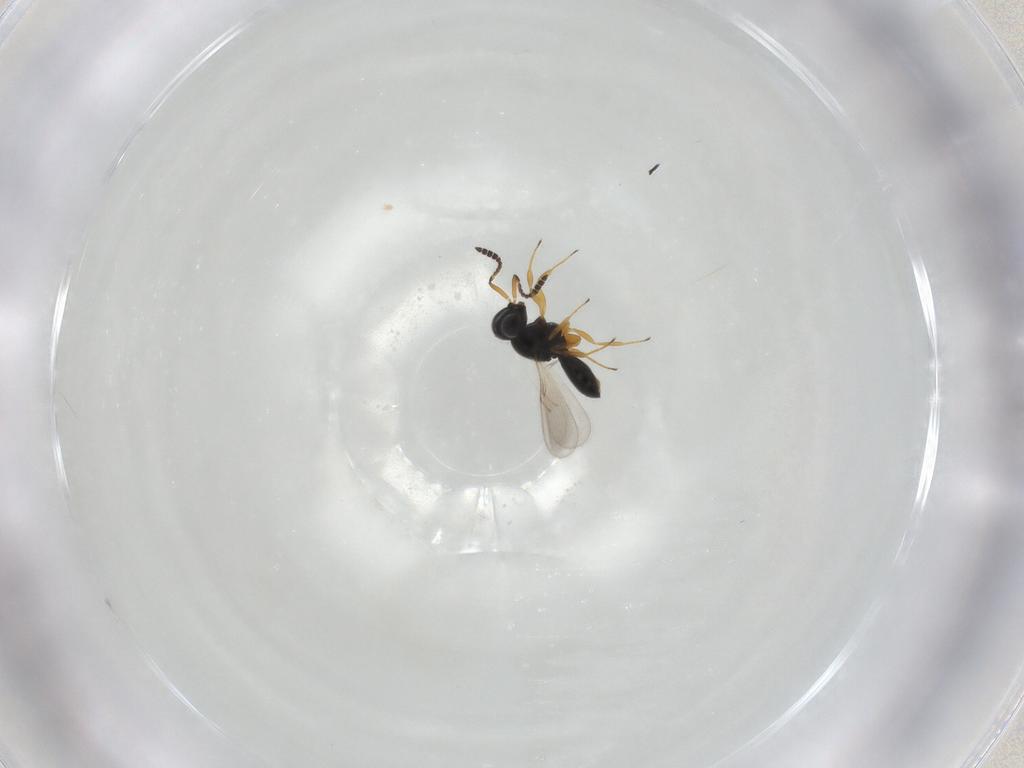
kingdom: Animalia
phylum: Arthropoda
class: Insecta
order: Hymenoptera
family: Scelionidae
